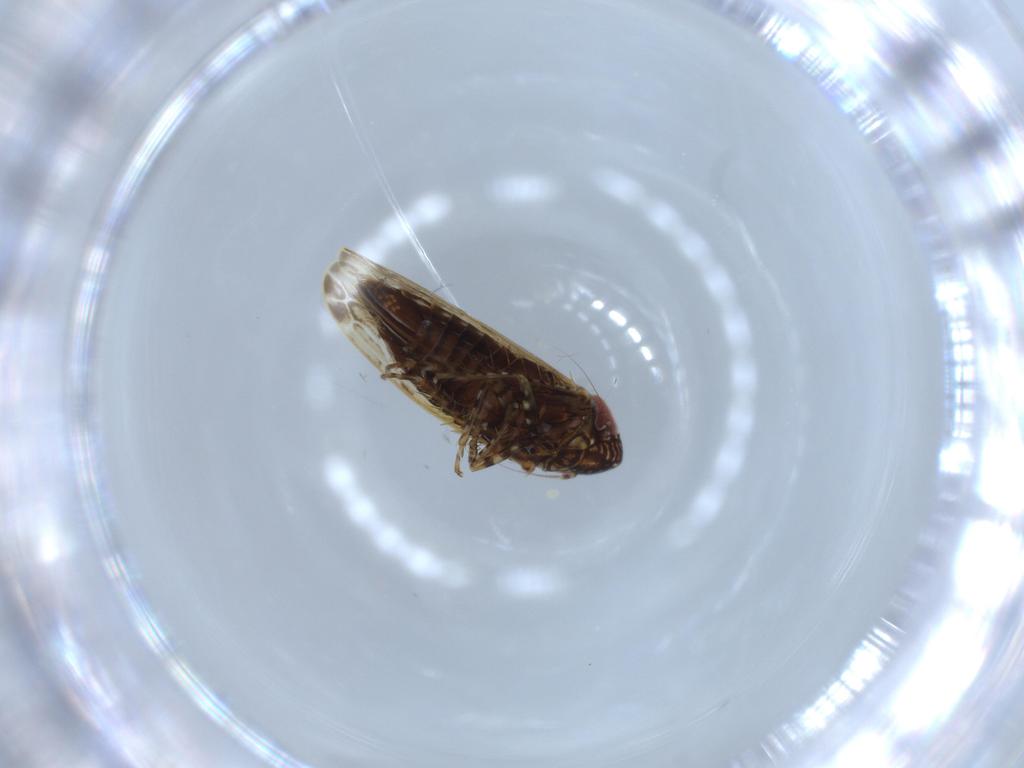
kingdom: Animalia
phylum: Arthropoda
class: Insecta
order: Hemiptera
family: Cicadellidae
